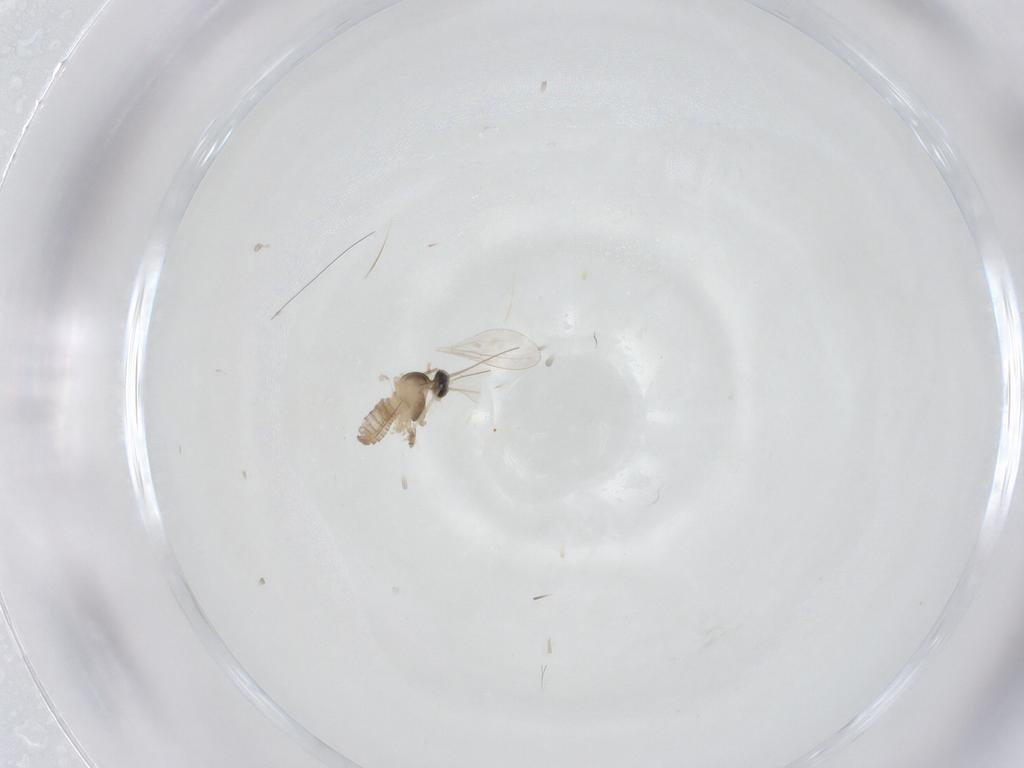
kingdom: Animalia
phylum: Arthropoda
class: Insecta
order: Diptera
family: Cecidomyiidae
